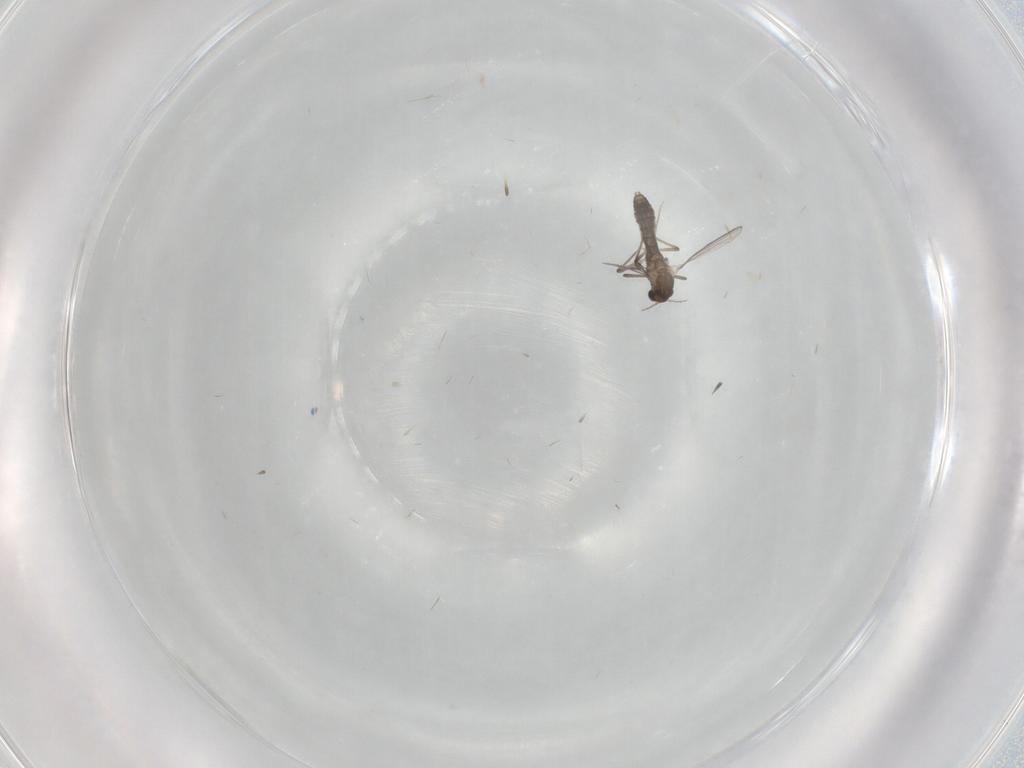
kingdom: Animalia
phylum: Arthropoda
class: Insecta
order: Diptera
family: Chironomidae
